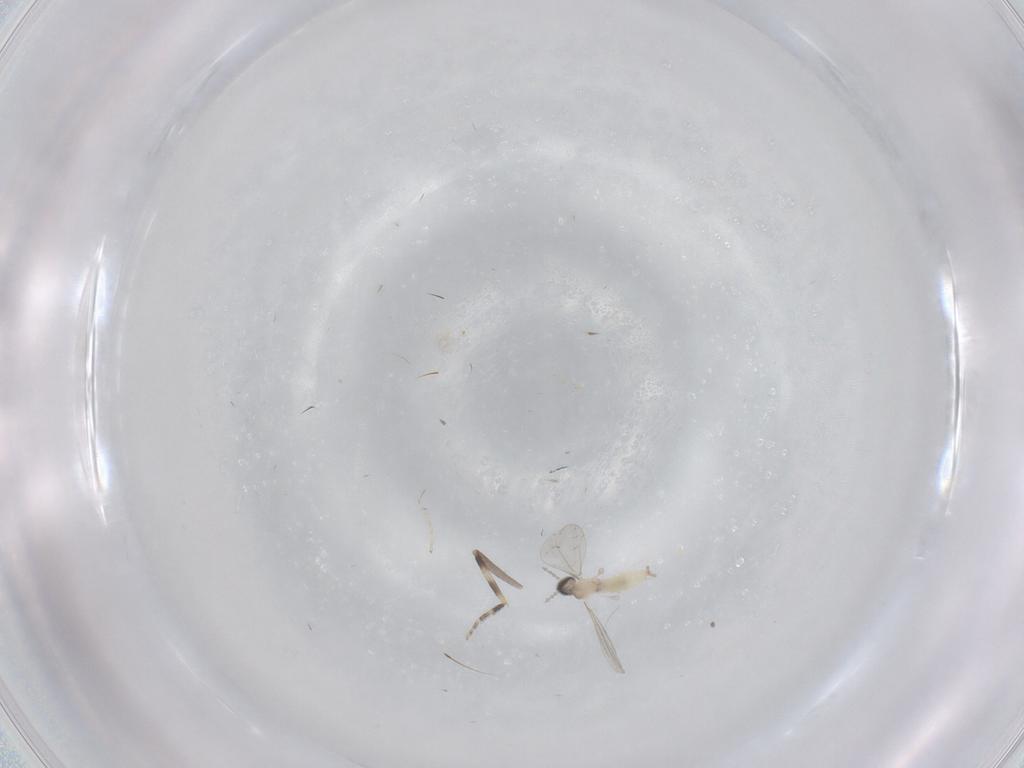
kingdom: Animalia
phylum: Arthropoda
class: Insecta
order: Diptera
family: Cecidomyiidae
